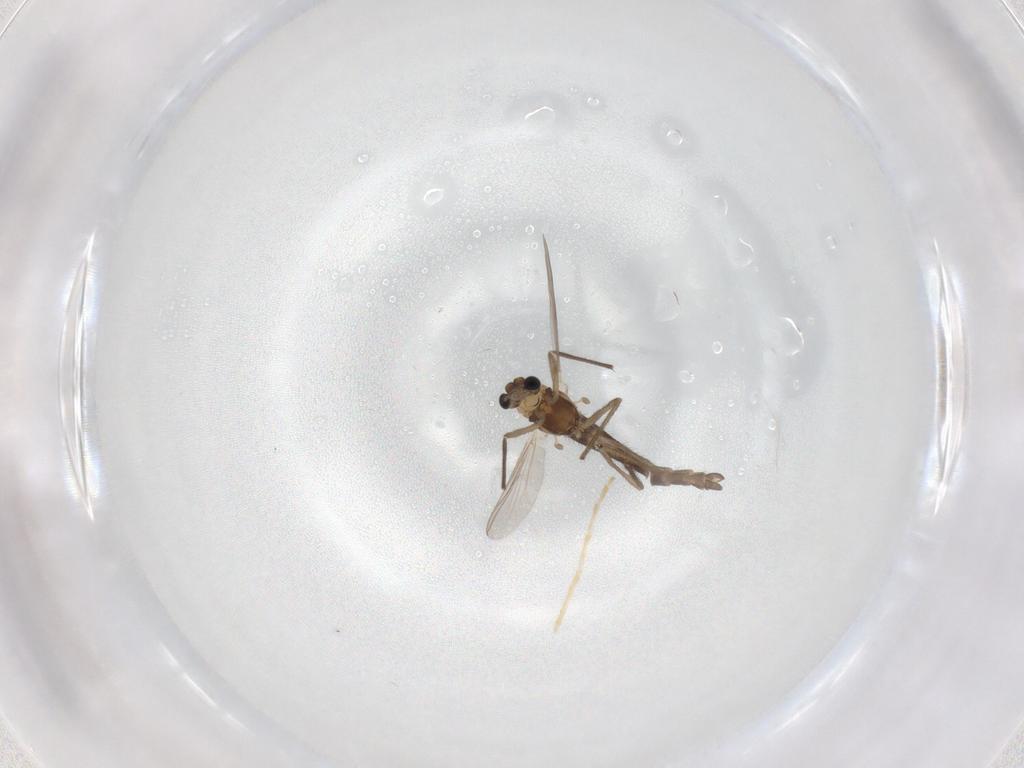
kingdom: Animalia
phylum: Arthropoda
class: Insecta
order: Diptera
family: Chironomidae
